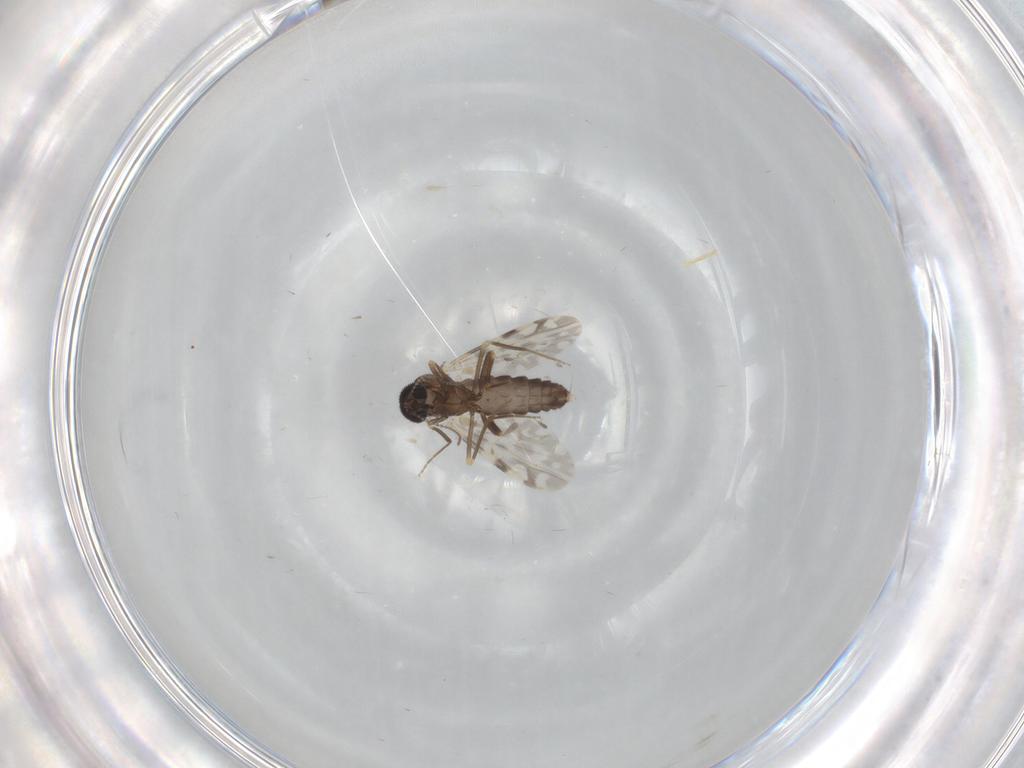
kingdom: Animalia
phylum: Arthropoda
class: Insecta
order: Diptera
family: Ceratopogonidae
